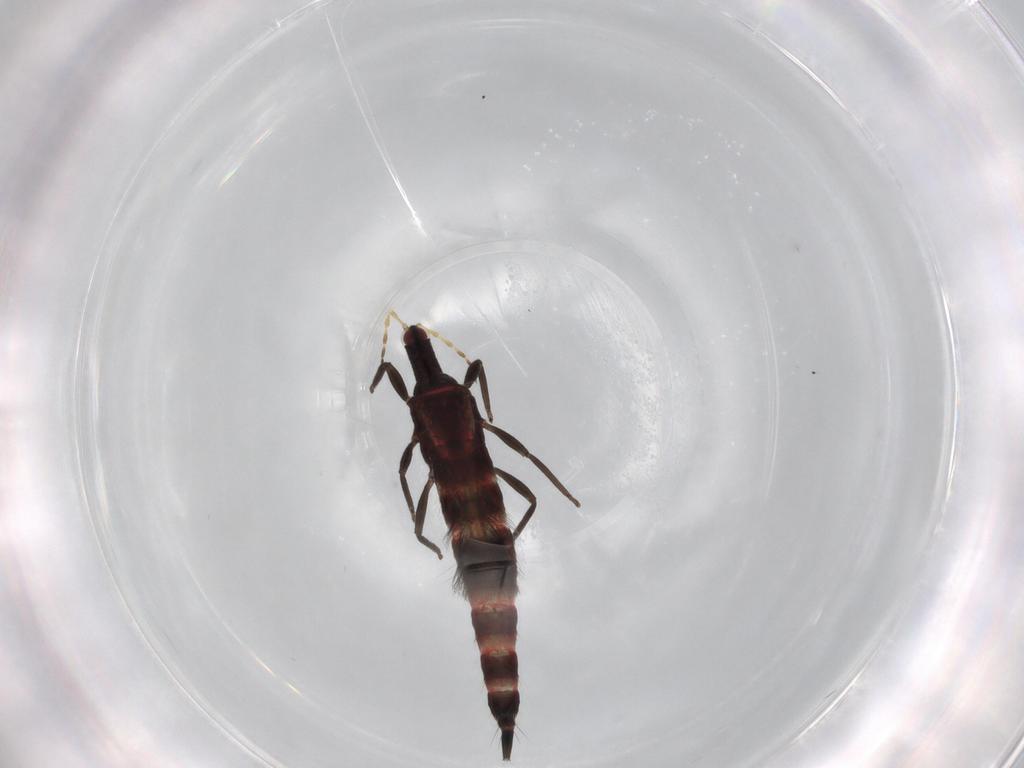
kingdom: Animalia
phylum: Arthropoda
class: Insecta
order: Thysanoptera
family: Phlaeothripidae
